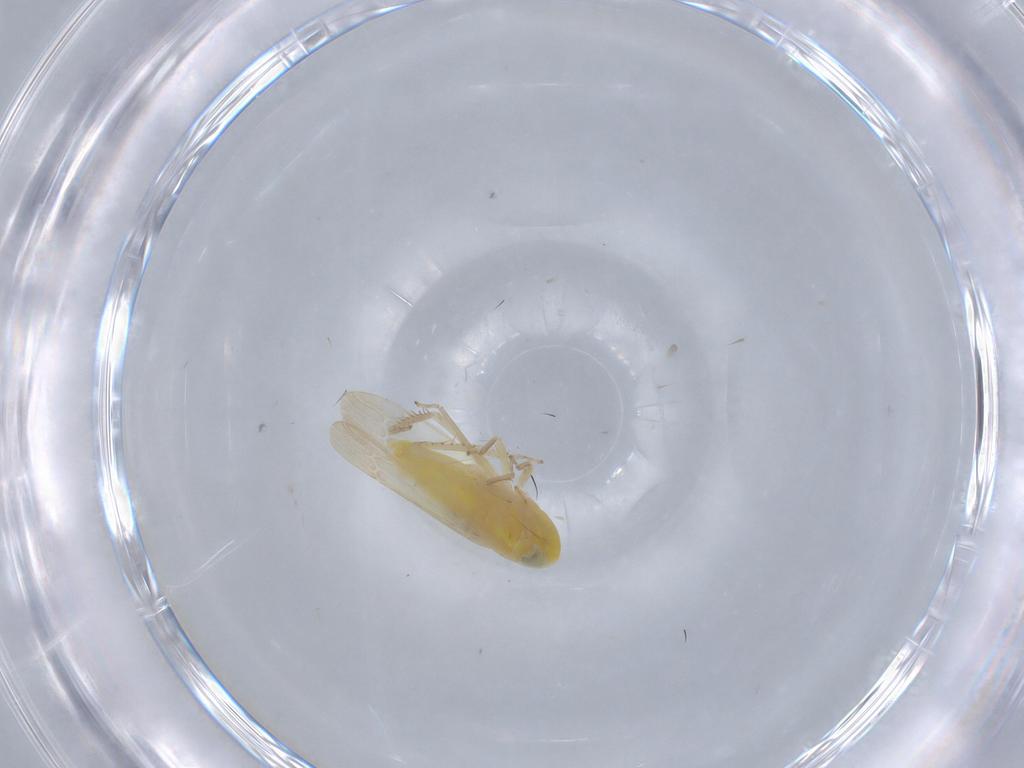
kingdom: Animalia
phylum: Arthropoda
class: Insecta
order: Hemiptera
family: Cicadellidae
